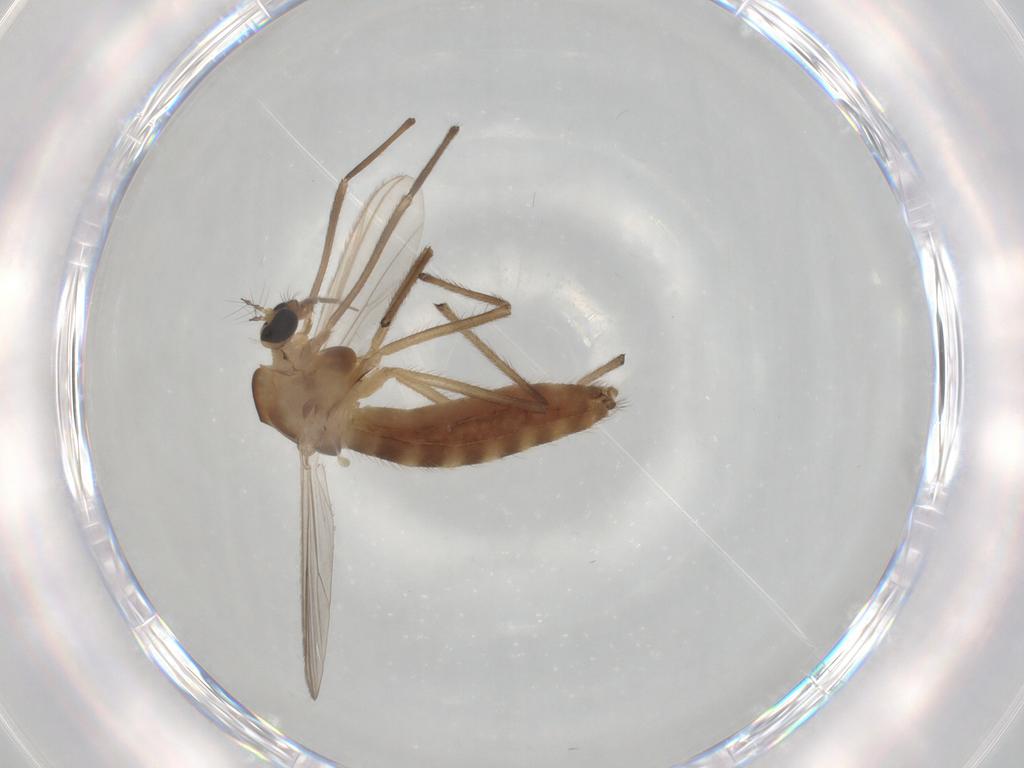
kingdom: Animalia
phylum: Arthropoda
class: Insecta
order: Diptera
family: Chironomidae
